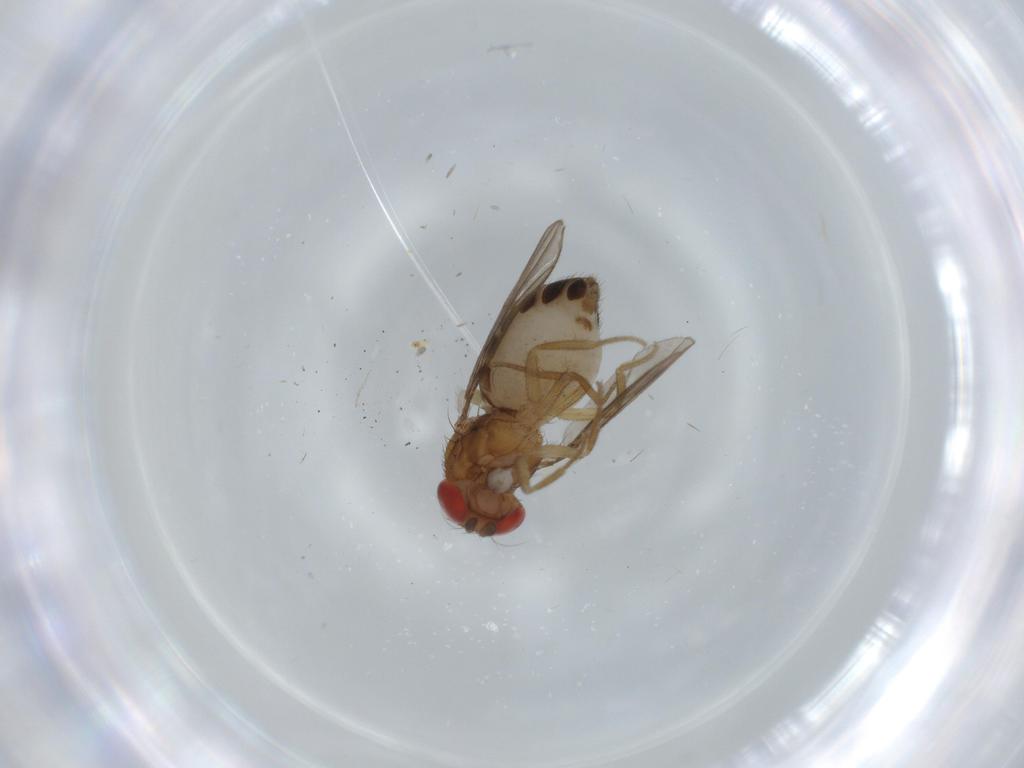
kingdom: Animalia
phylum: Arthropoda
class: Insecta
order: Diptera
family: Drosophilidae
